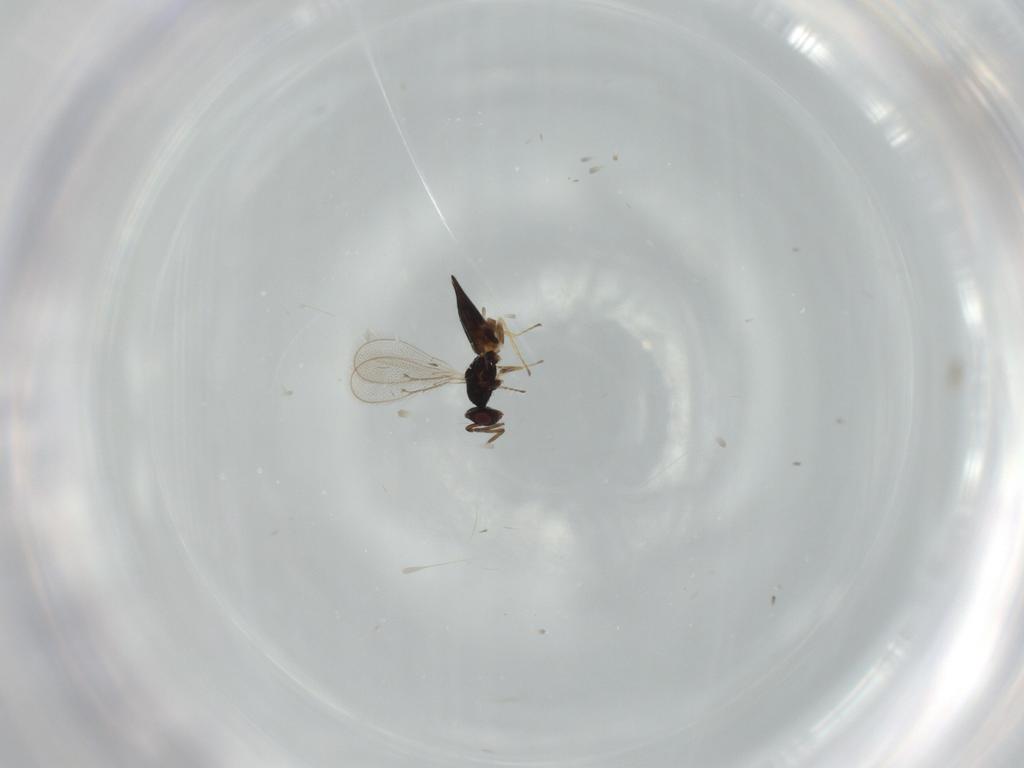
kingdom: Animalia
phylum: Arthropoda
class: Insecta
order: Hymenoptera
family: Eulophidae
